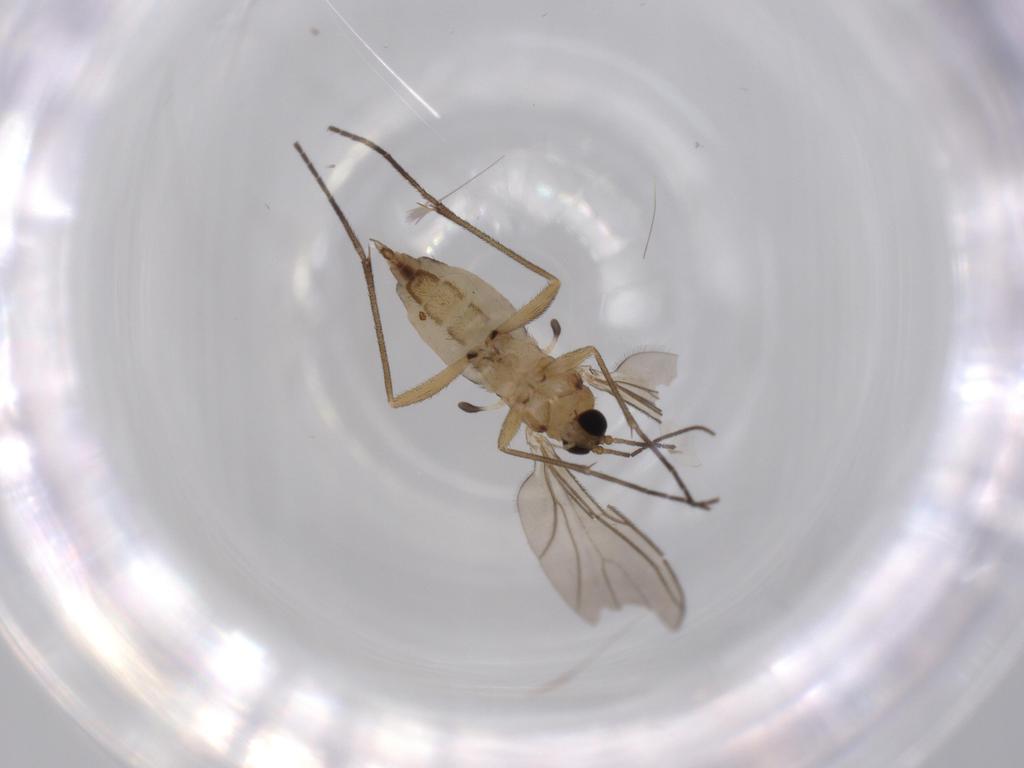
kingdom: Animalia
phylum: Arthropoda
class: Insecta
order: Diptera
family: Sciaridae
